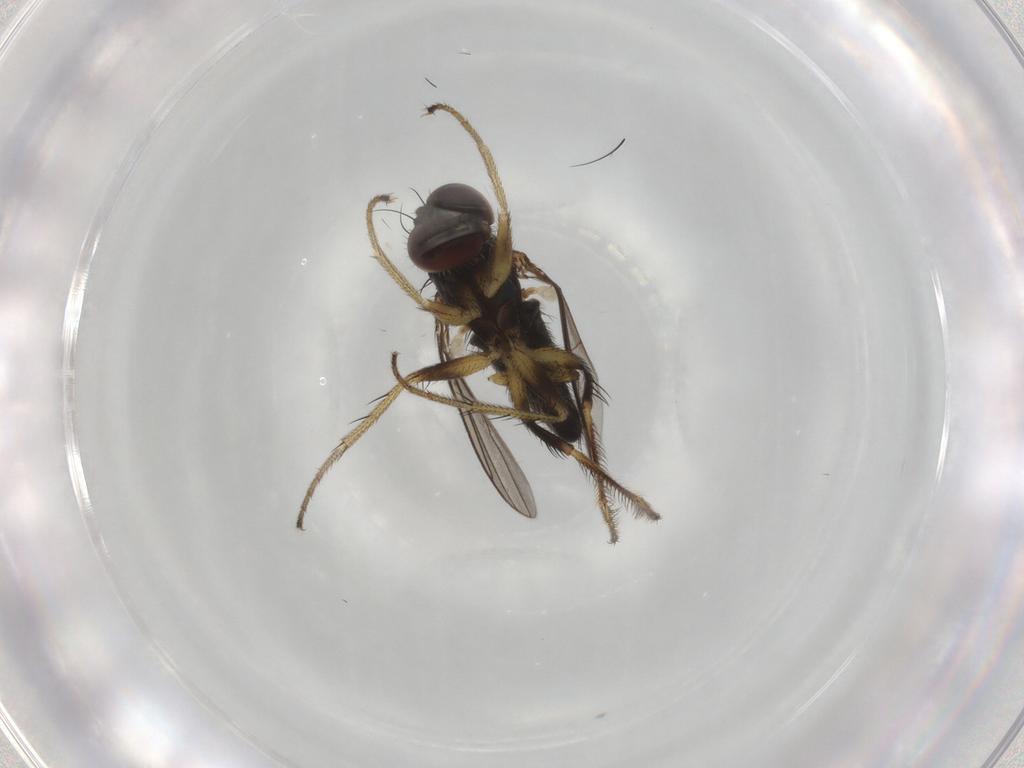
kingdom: Animalia
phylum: Arthropoda
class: Insecta
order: Diptera
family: Dolichopodidae
